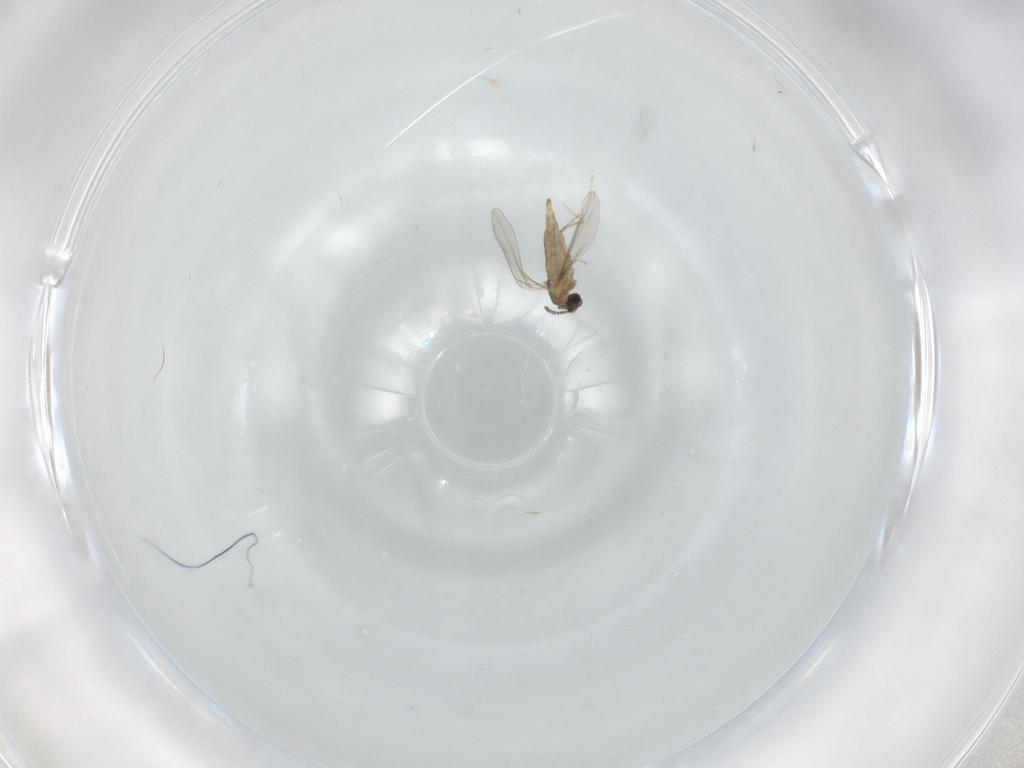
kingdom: Animalia
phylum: Arthropoda
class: Insecta
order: Diptera
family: Cecidomyiidae
